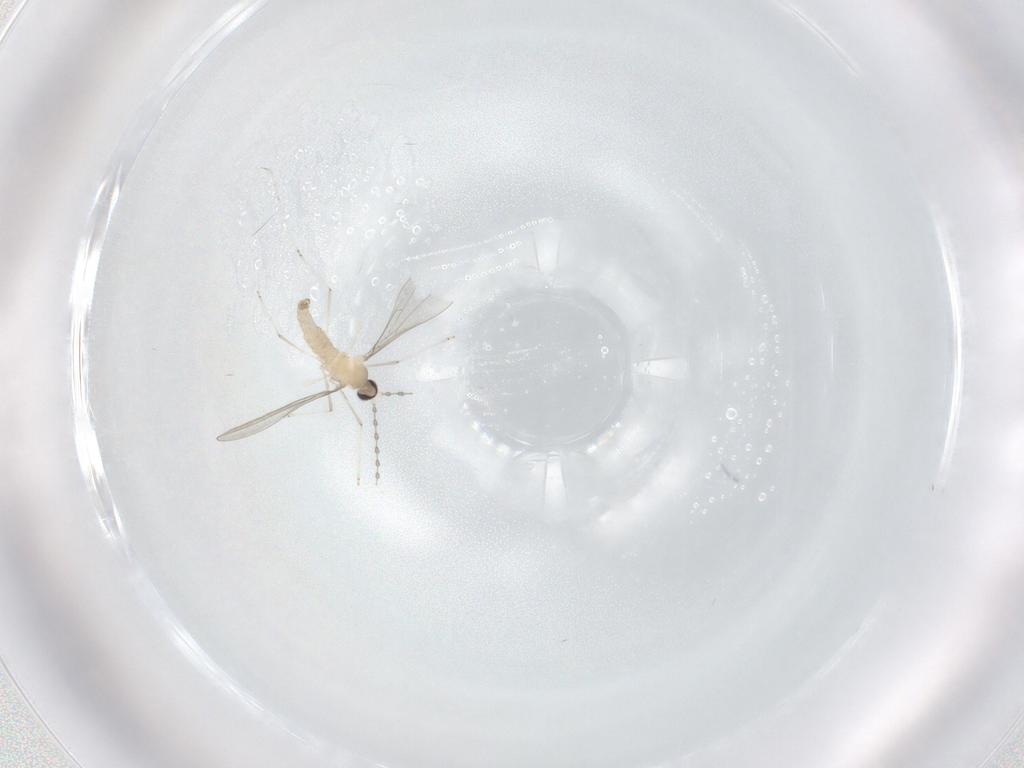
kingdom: Animalia
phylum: Arthropoda
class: Insecta
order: Diptera
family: Cecidomyiidae
